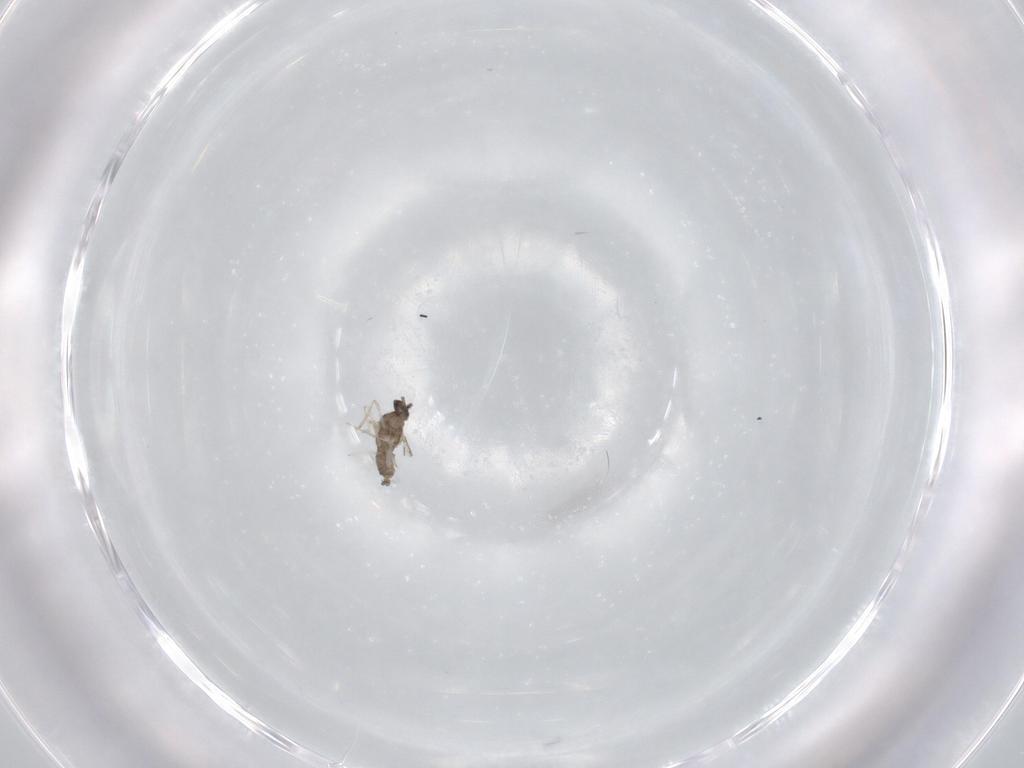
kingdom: Animalia
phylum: Arthropoda
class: Insecta
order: Diptera
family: Cecidomyiidae
